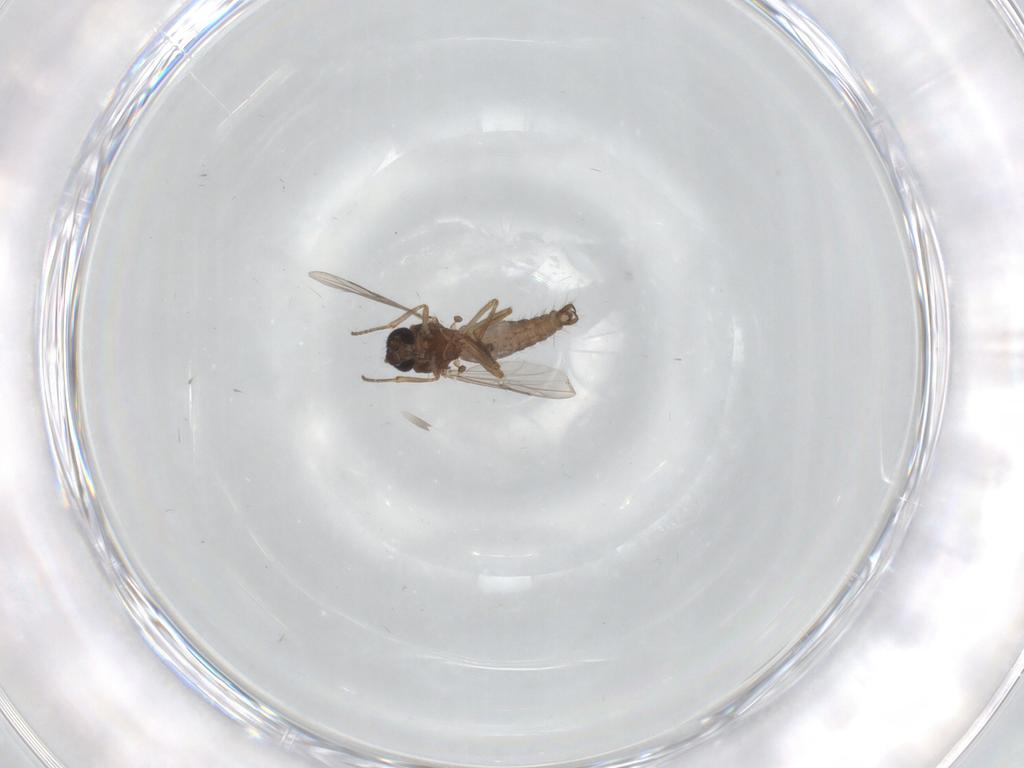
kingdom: Animalia
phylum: Arthropoda
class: Insecta
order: Diptera
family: Ceratopogonidae
